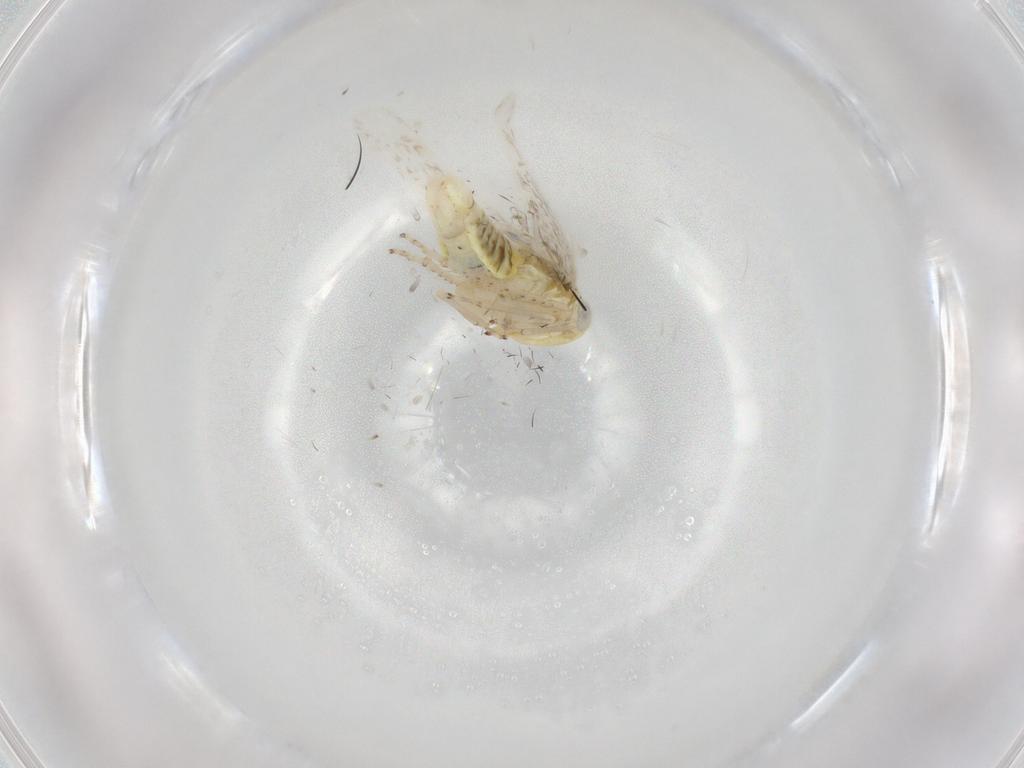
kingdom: Animalia
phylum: Arthropoda
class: Insecta
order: Hemiptera
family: Cicadellidae
